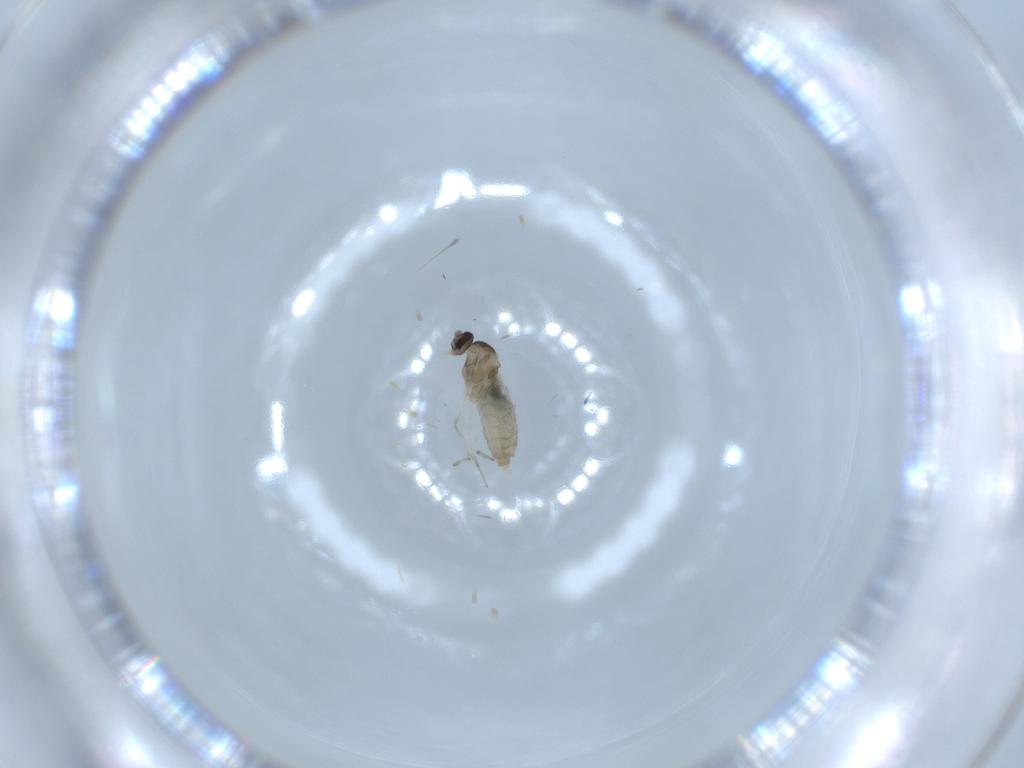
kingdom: Animalia
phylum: Arthropoda
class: Insecta
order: Diptera
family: Cecidomyiidae
